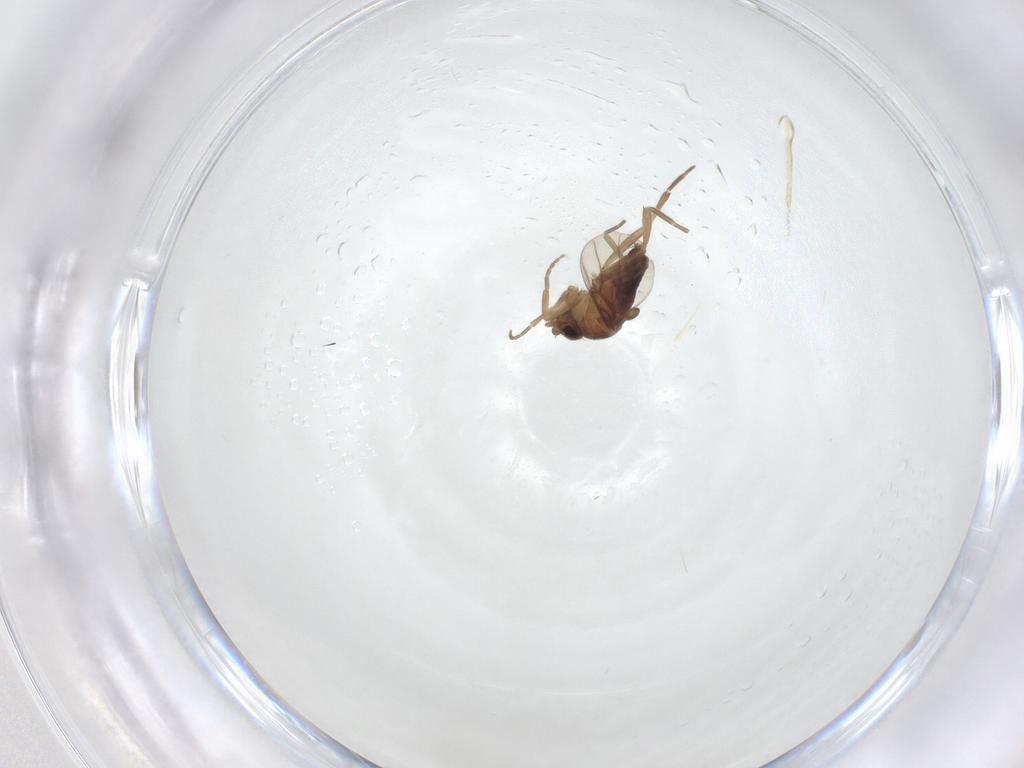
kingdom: Animalia
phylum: Arthropoda
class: Insecta
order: Diptera
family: Phoridae
